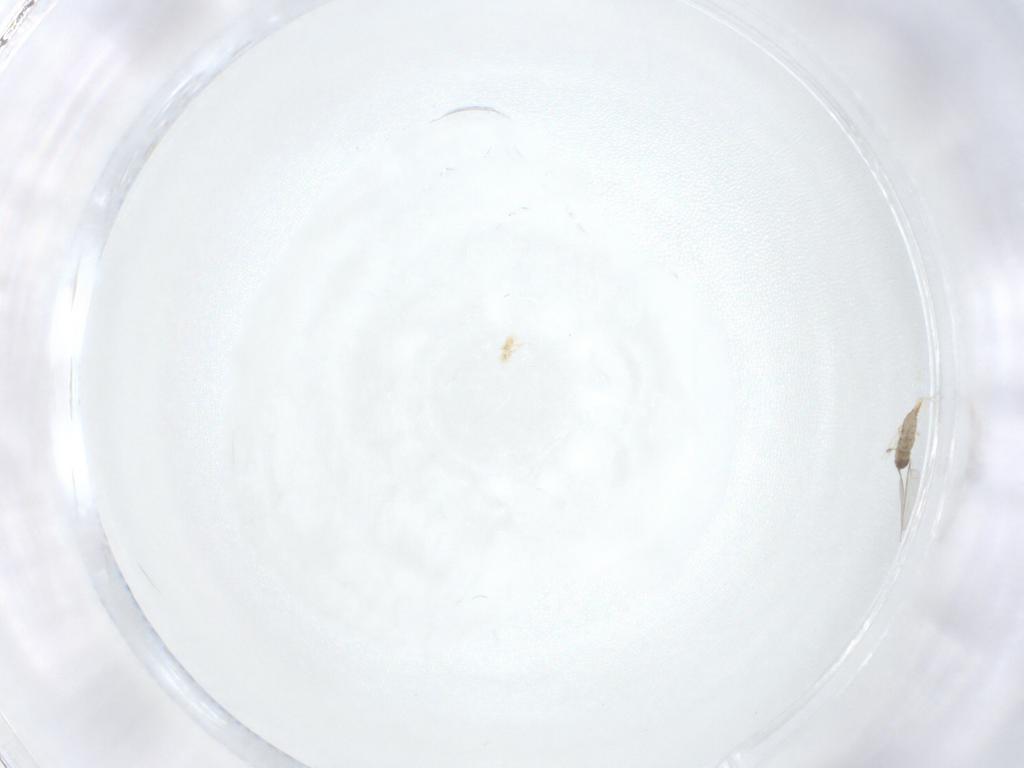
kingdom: Animalia
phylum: Arthropoda
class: Insecta
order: Diptera
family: Cecidomyiidae
